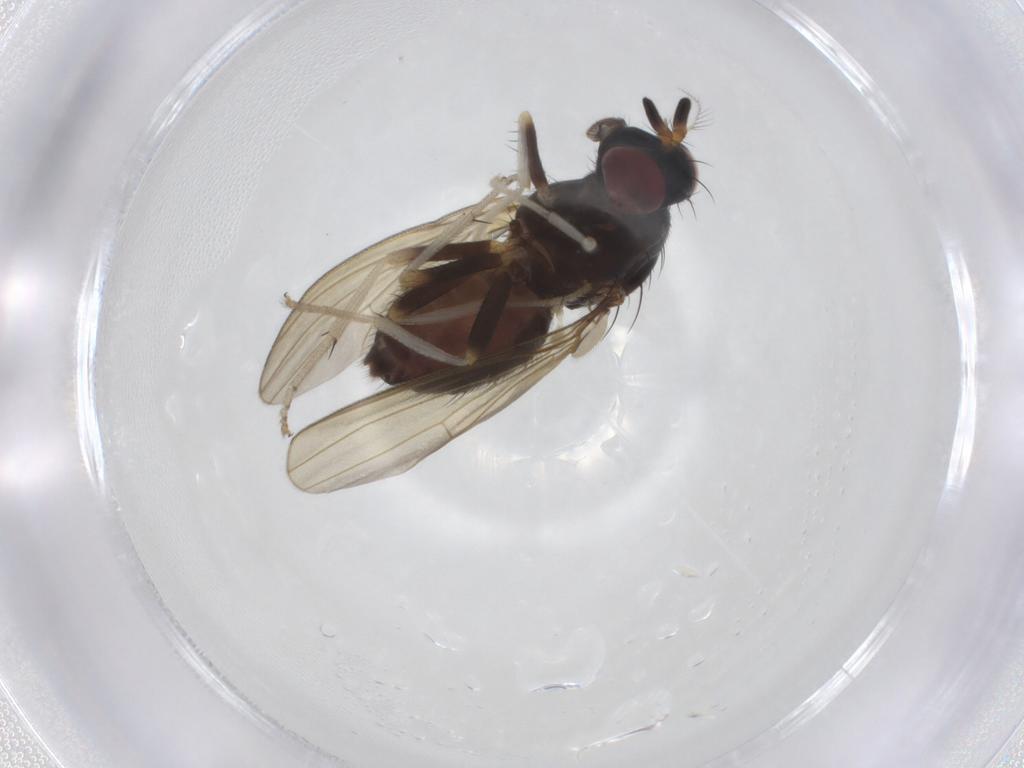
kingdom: Animalia
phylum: Arthropoda
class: Insecta
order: Diptera
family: Lauxaniidae
